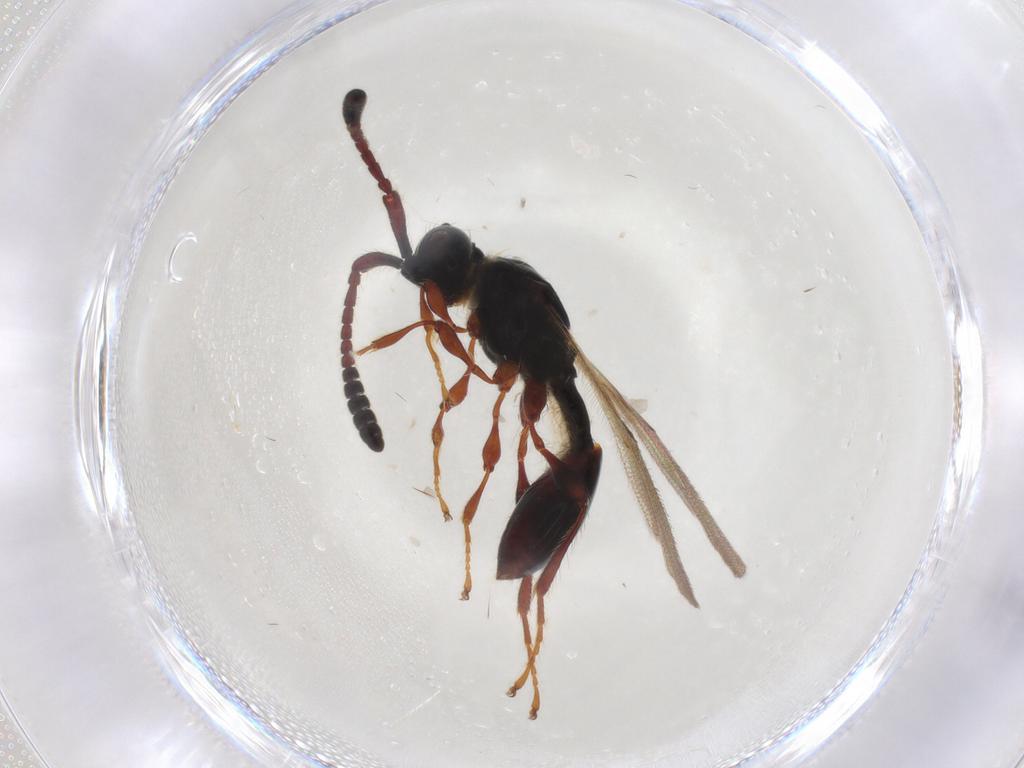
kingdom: Animalia
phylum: Arthropoda
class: Insecta
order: Hymenoptera
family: Diapriidae
